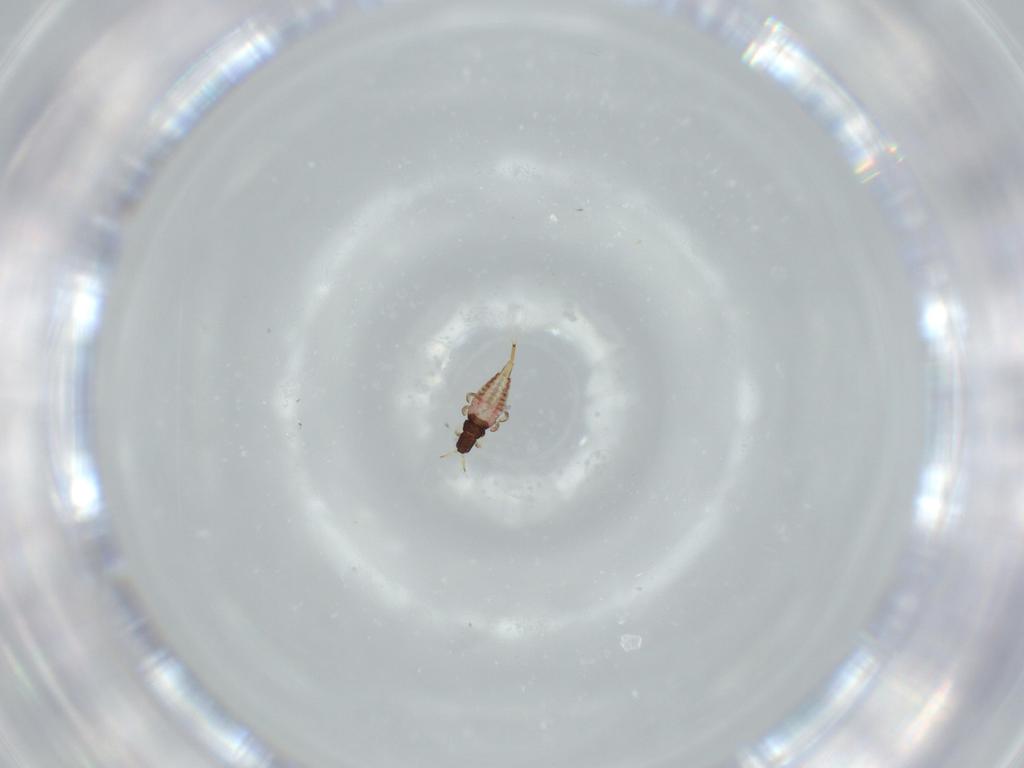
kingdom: Animalia
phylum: Arthropoda
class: Insecta
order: Thysanoptera
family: Phlaeothripidae
